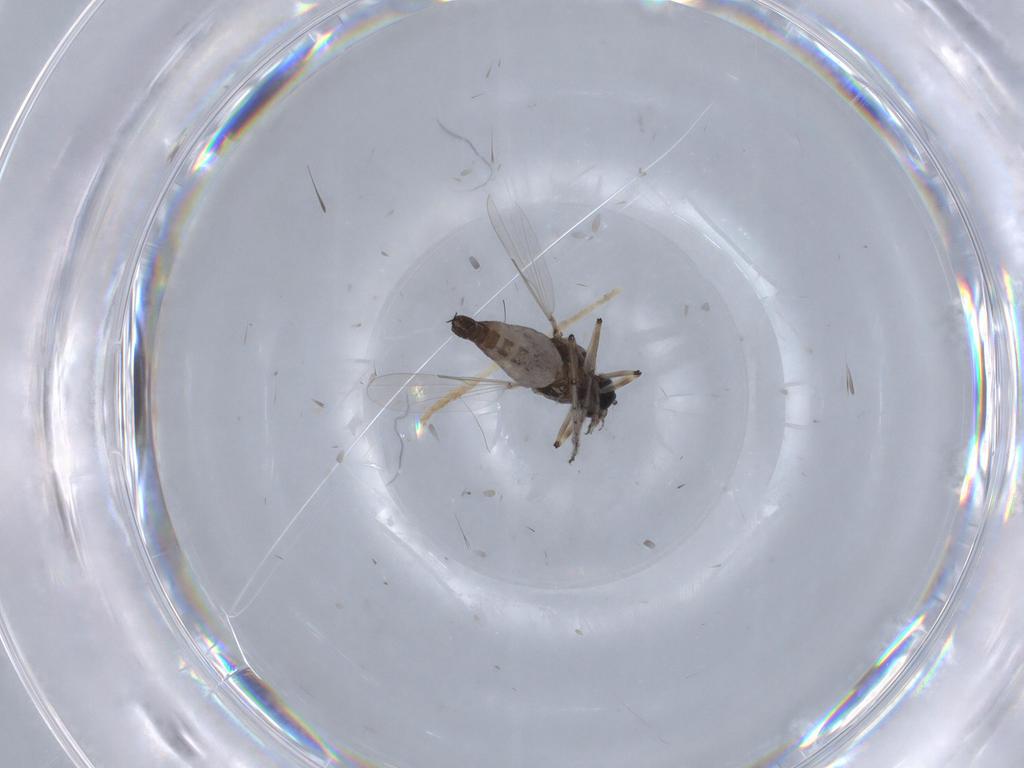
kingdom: Animalia
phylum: Arthropoda
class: Insecta
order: Diptera
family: Ceratopogonidae
